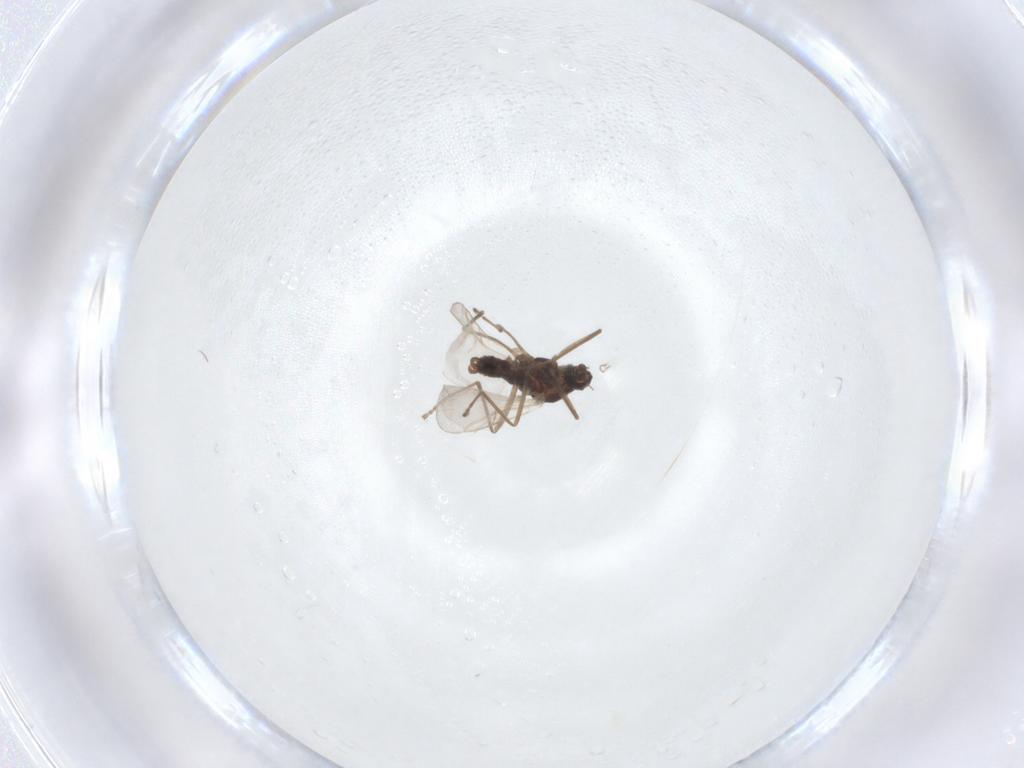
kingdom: Animalia
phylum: Arthropoda
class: Insecta
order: Diptera
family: Cecidomyiidae
